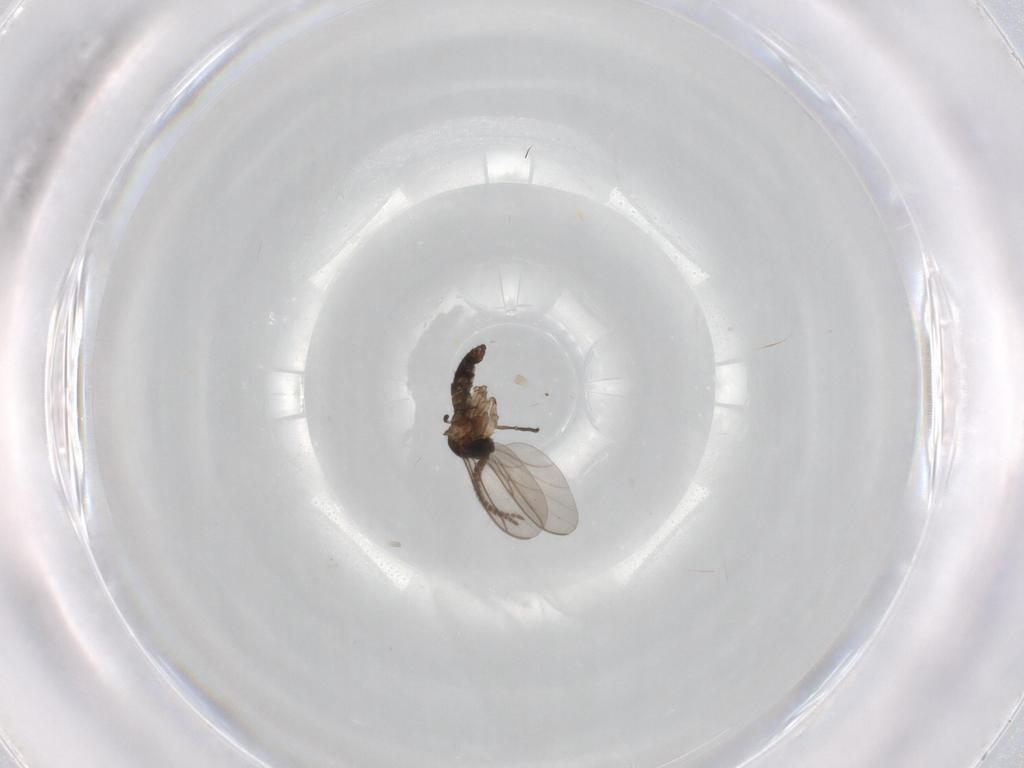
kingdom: Animalia
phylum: Arthropoda
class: Insecta
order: Diptera
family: Sciaridae
